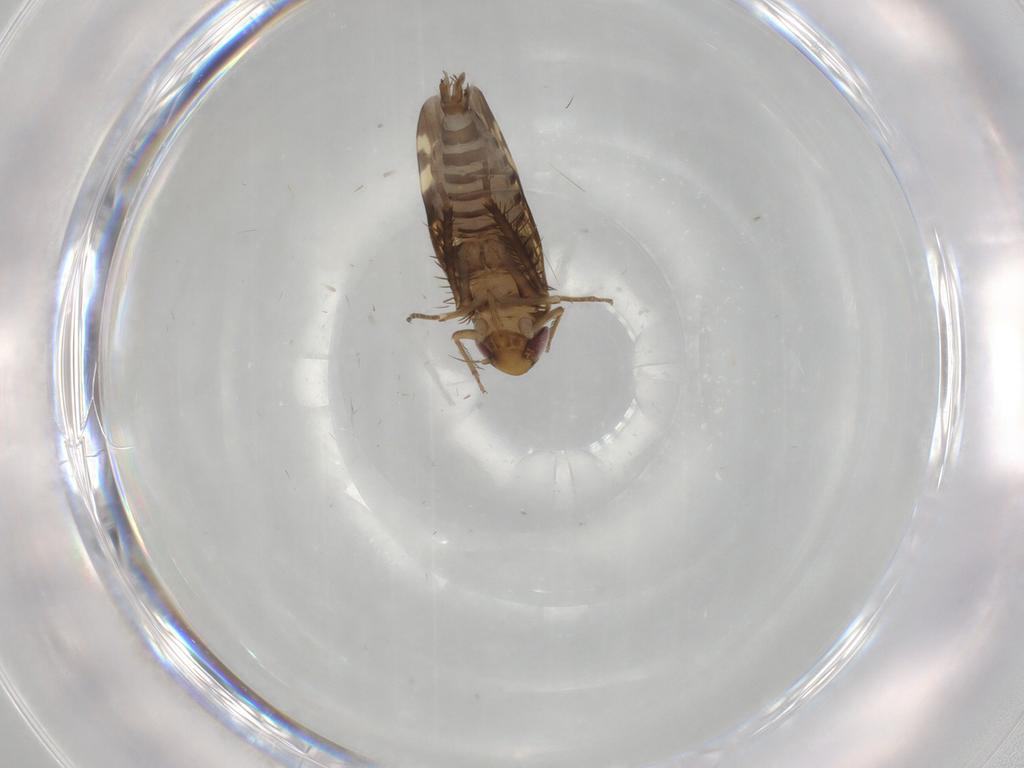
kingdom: Animalia
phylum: Arthropoda
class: Insecta
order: Hemiptera
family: Cicadellidae
